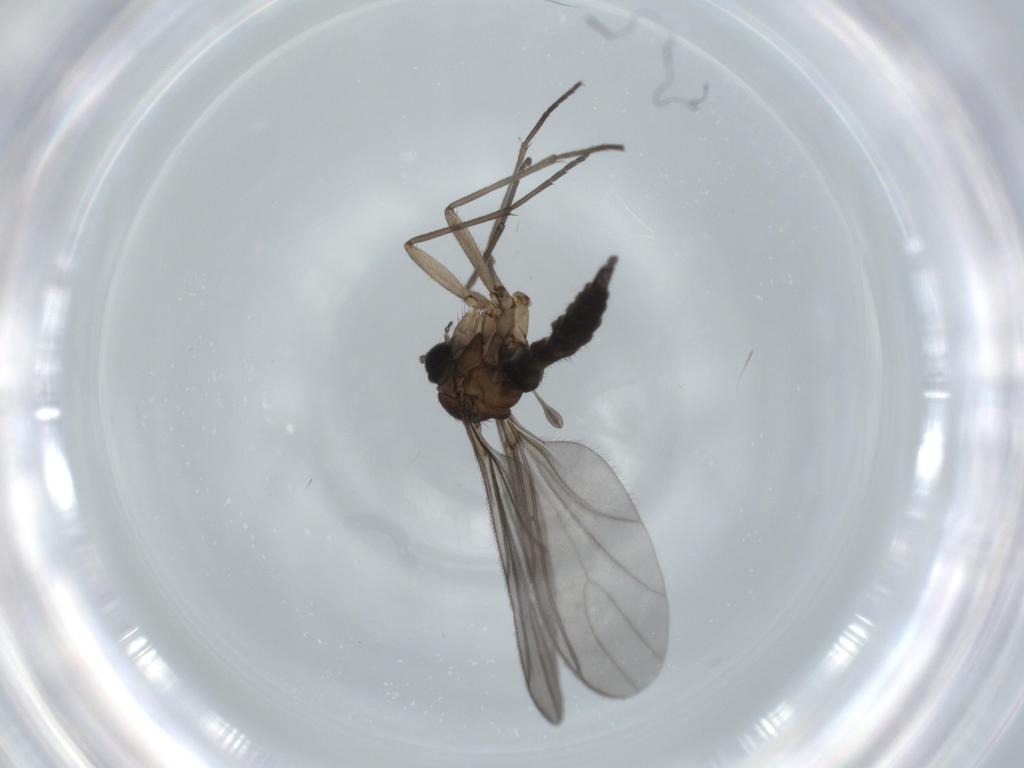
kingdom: Animalia
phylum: Arthropoda
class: Insecta
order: Diptera
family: Sciaridae
